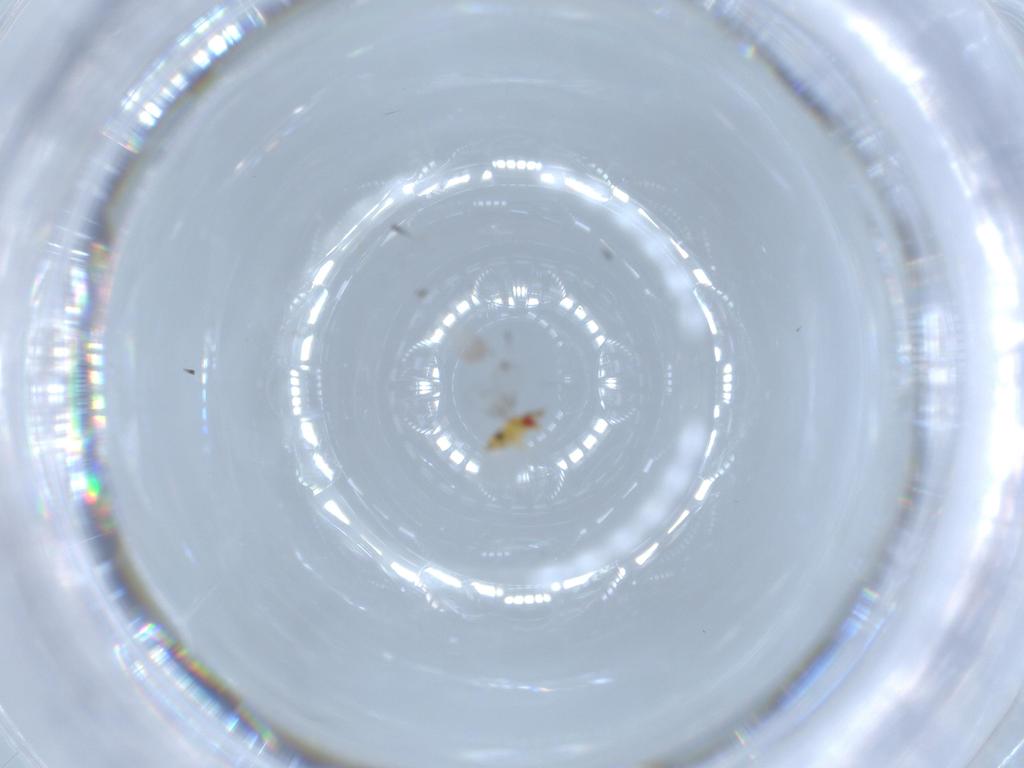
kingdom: Animalia
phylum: Arthropoda
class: Insecta
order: Hymenoptera
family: Trichogrammatidae
